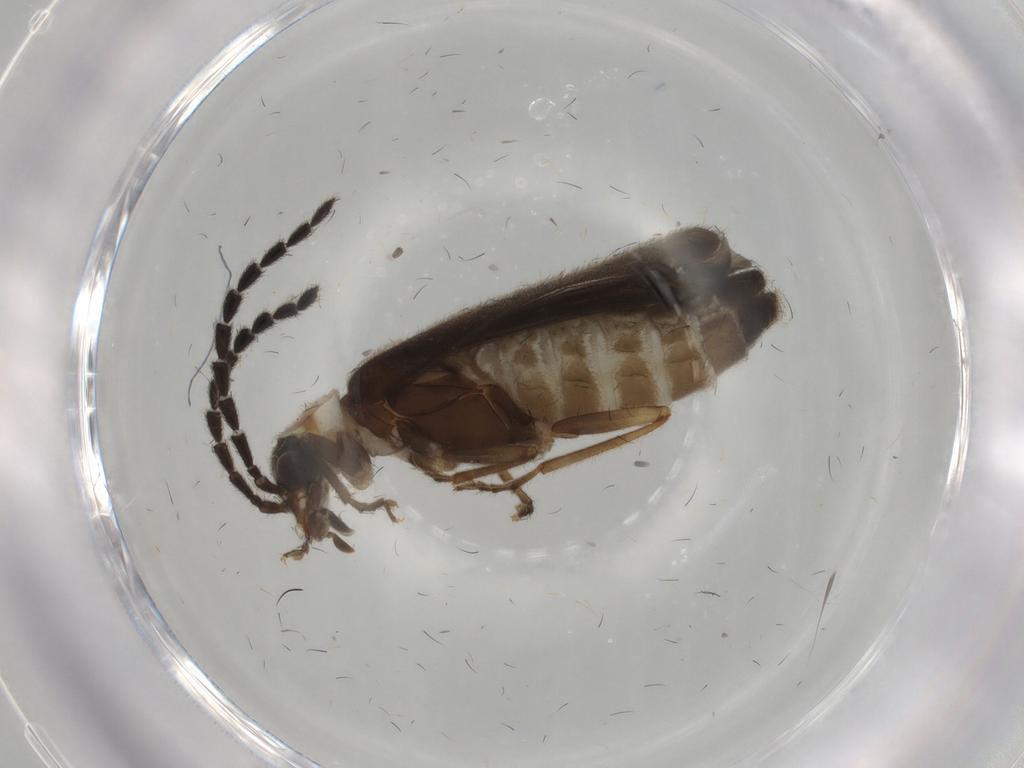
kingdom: Animalia
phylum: Arthropoda
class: Insecta
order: Coleoptera
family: Cantharidae
